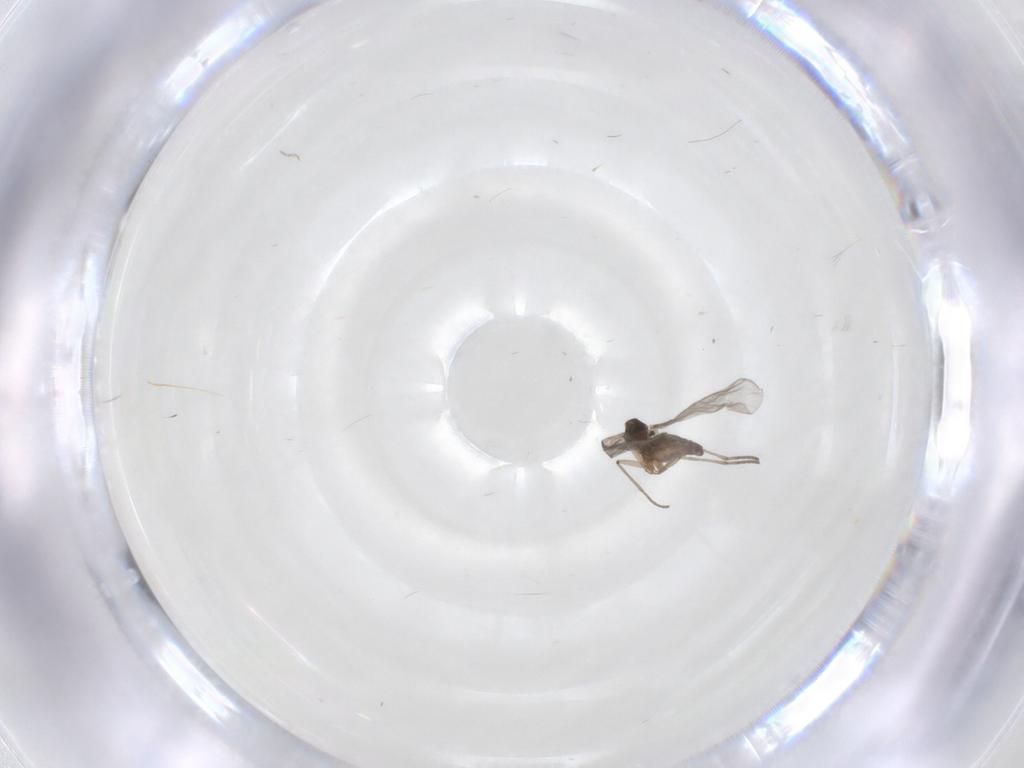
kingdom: Animalia
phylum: Arthropoda
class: Insecta
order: Diptera
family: Sciaridae
